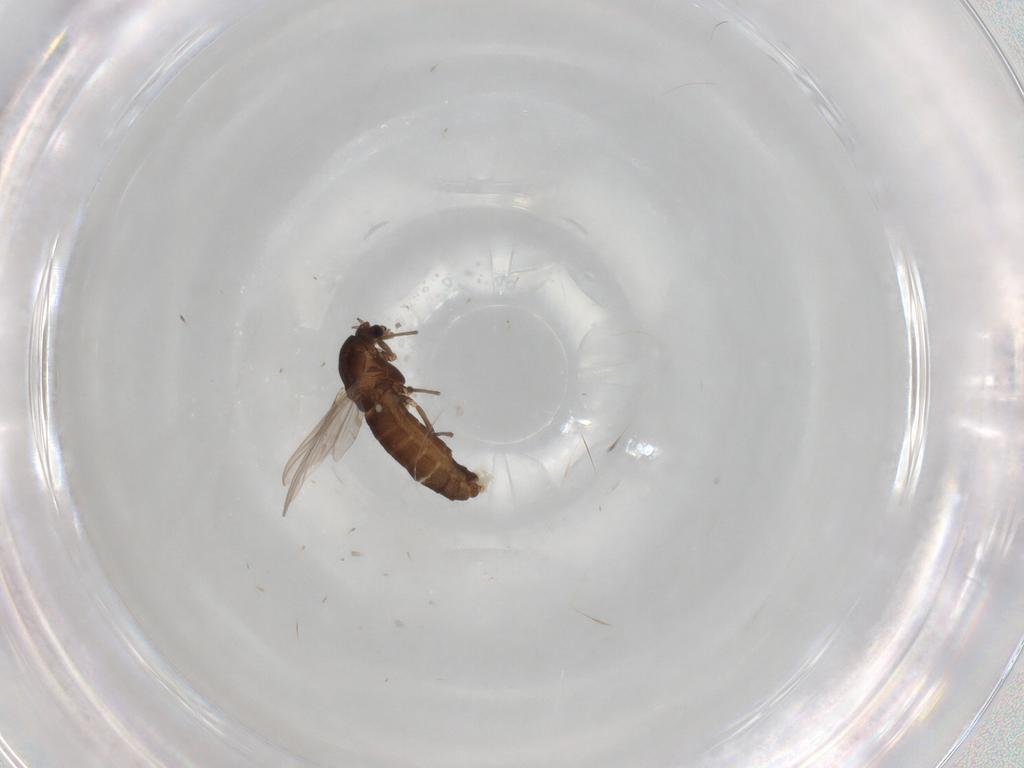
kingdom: Animalia
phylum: Arthropoda
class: Insecta
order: Diptera
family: Chironomidae
